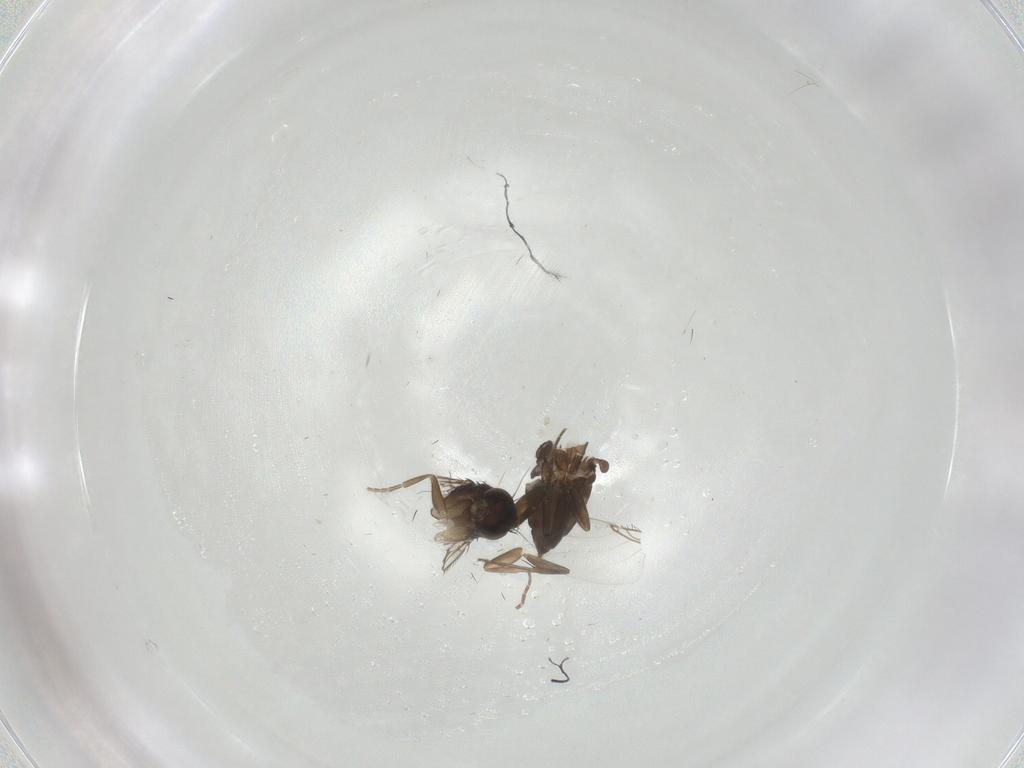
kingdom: Animalia
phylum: Arthropoda
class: Insecta
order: Diptera
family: Phoridae
